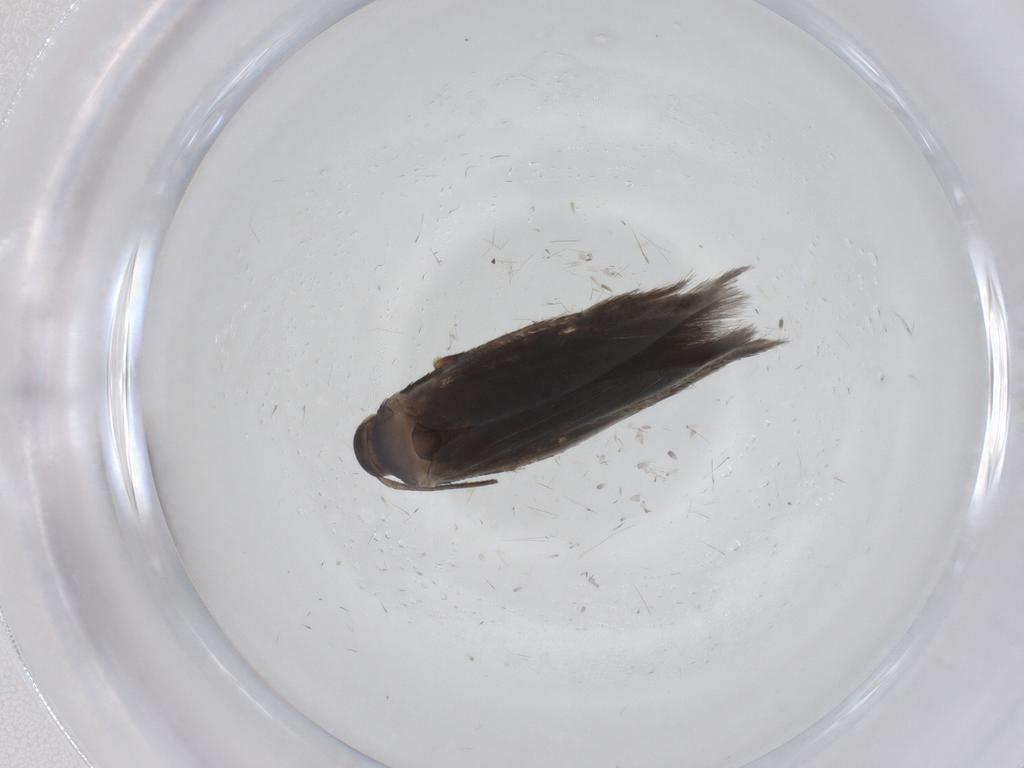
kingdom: Animalia
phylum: Arthropoda
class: Insecta
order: Lepidoptera
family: Elachistidae
